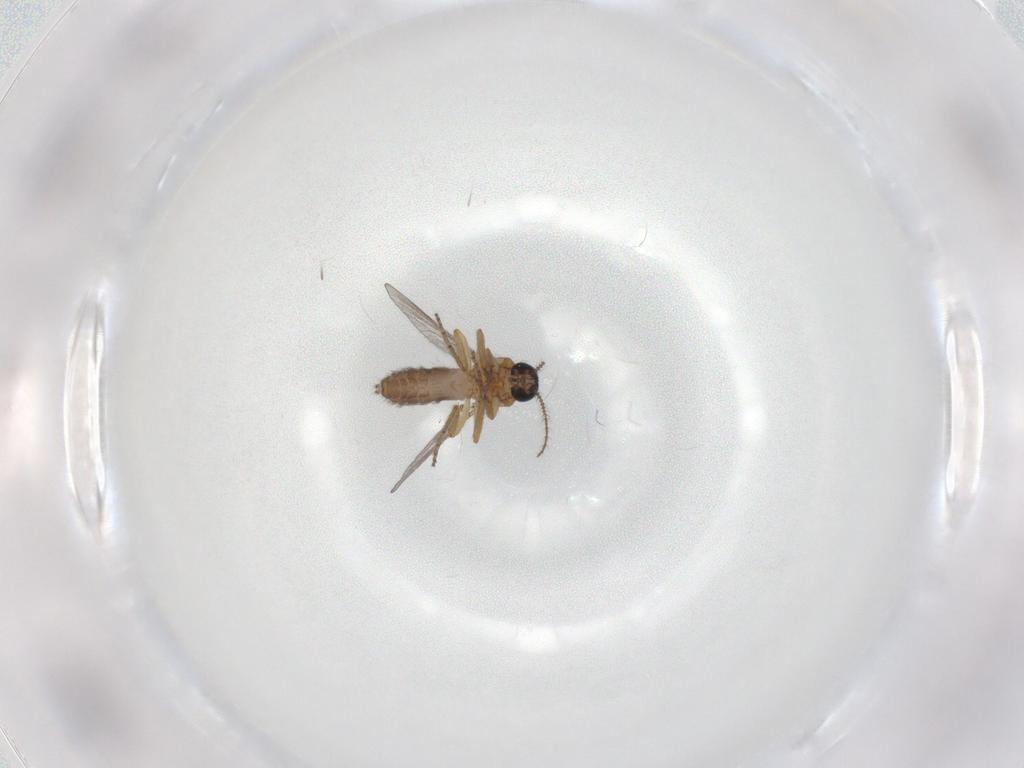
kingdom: Animalia
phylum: Arthropoda
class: Insecta
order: Diptera
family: Ceratopogonidae
